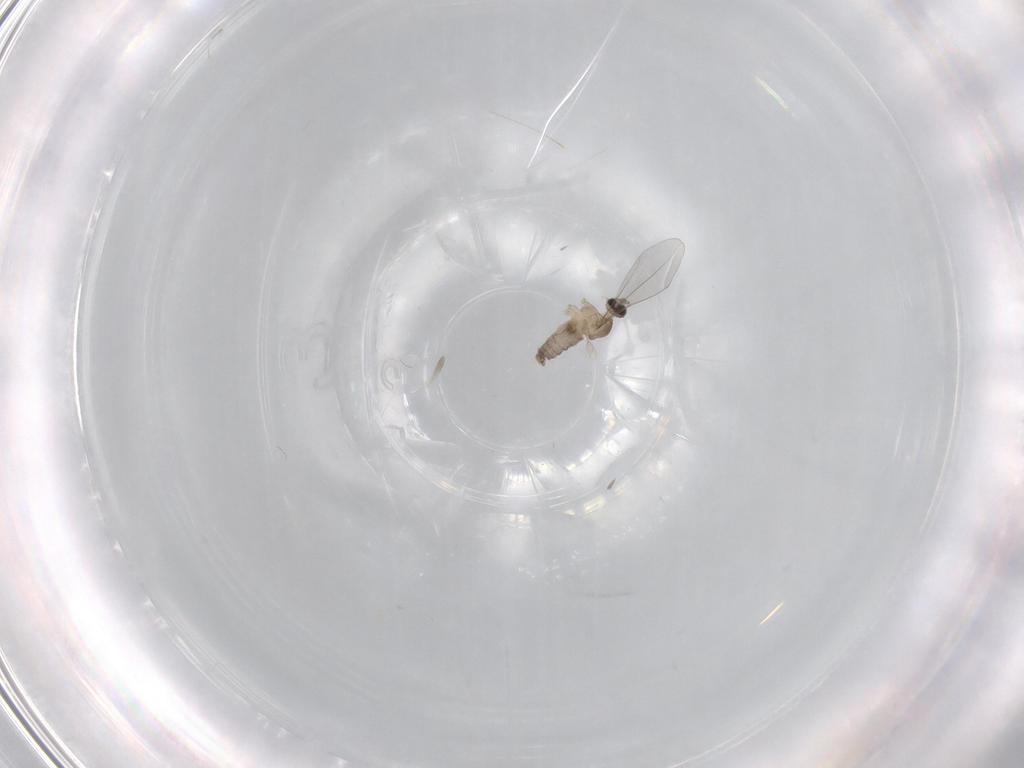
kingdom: Animalia
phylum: Arthropoda
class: Insecta
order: Diptera
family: Cecidomyiidae
